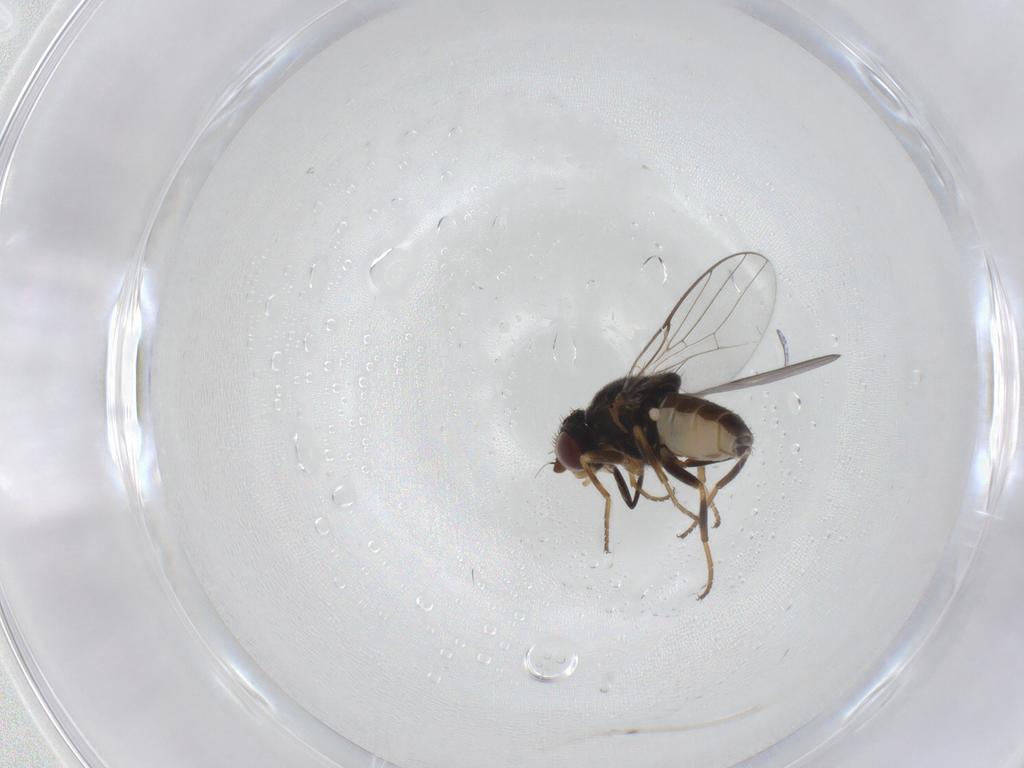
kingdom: Animalia
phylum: Arthropoda
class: Insecta
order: Diptera
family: Chloropidae
